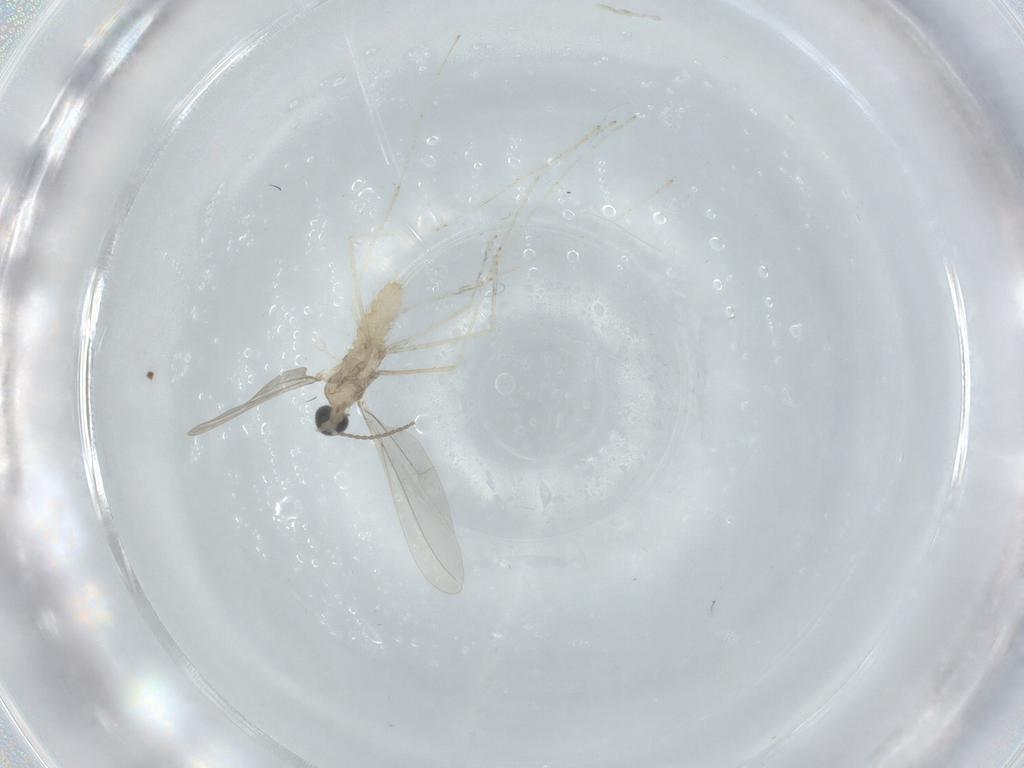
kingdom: Animalia
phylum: Arthropoda
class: Insecta
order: Diptera
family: Cecidomyiidae
